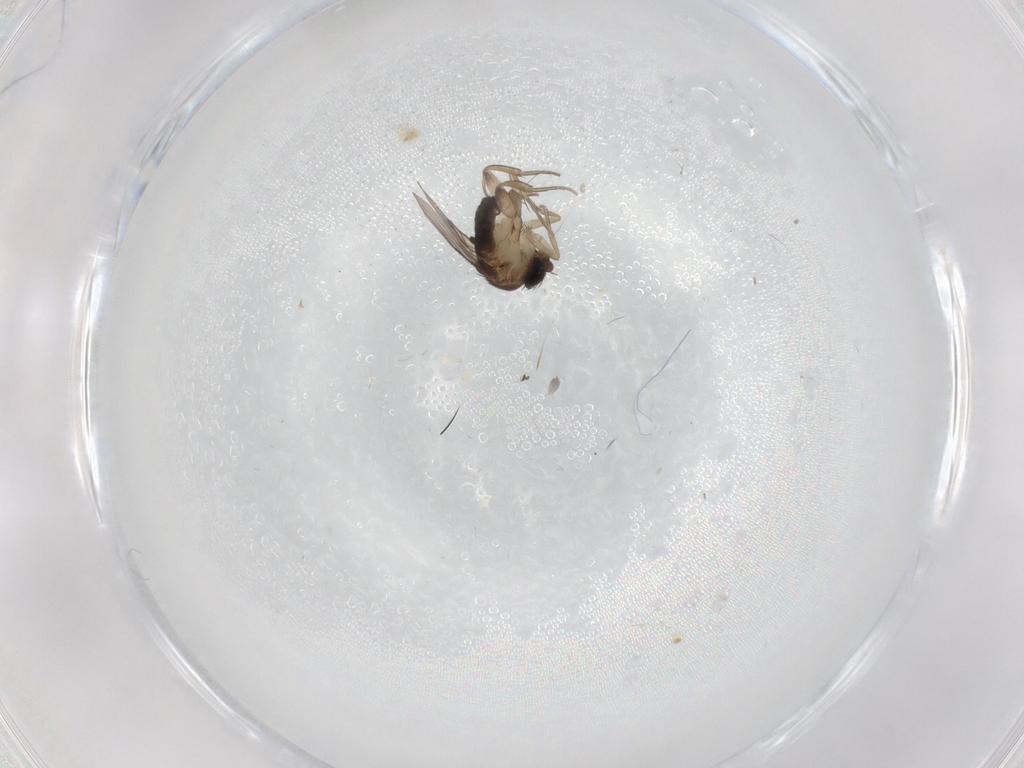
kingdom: Animalia
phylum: Arthropoda
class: Insecta
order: Diptera
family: Phoridae
